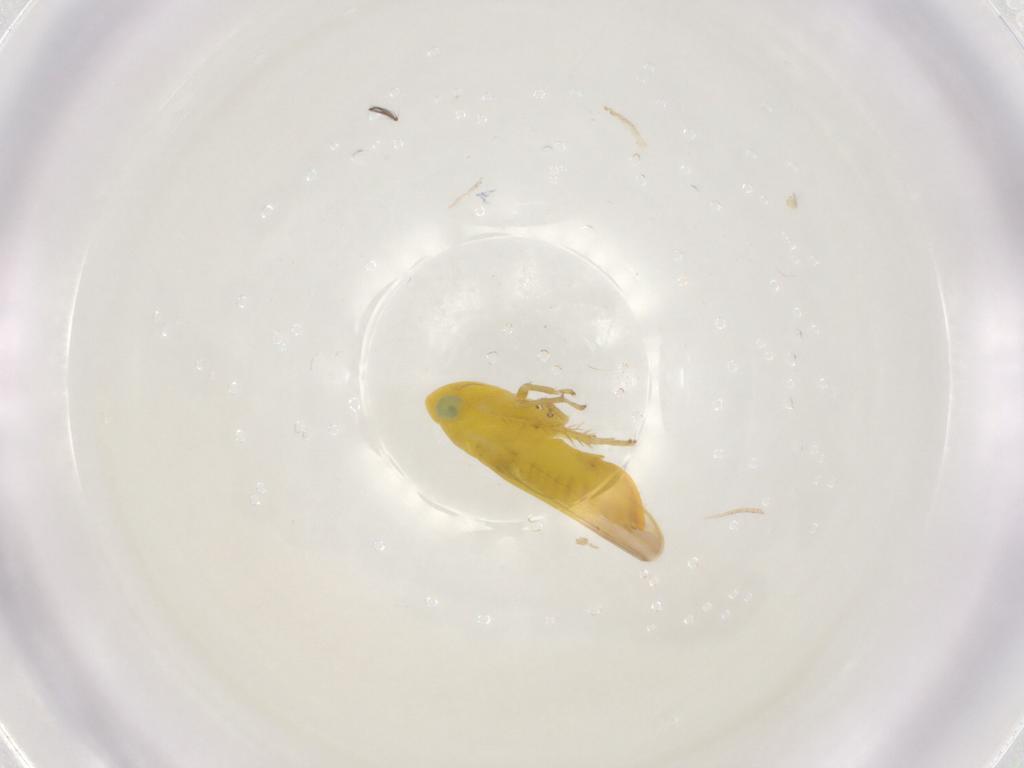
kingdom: Animalia
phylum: Arthropoda
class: Insecta
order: Hemiptera
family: Cicadellidae
